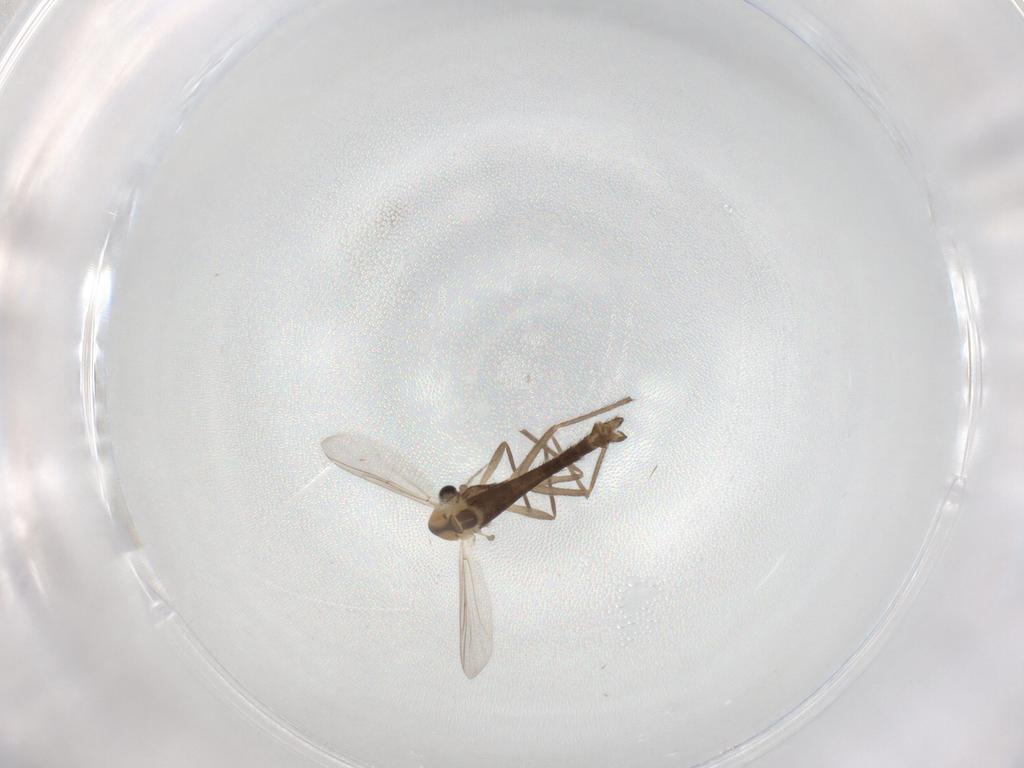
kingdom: Animalia
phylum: Arthropoda
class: Insecta
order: Diptera
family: Chironomidae
